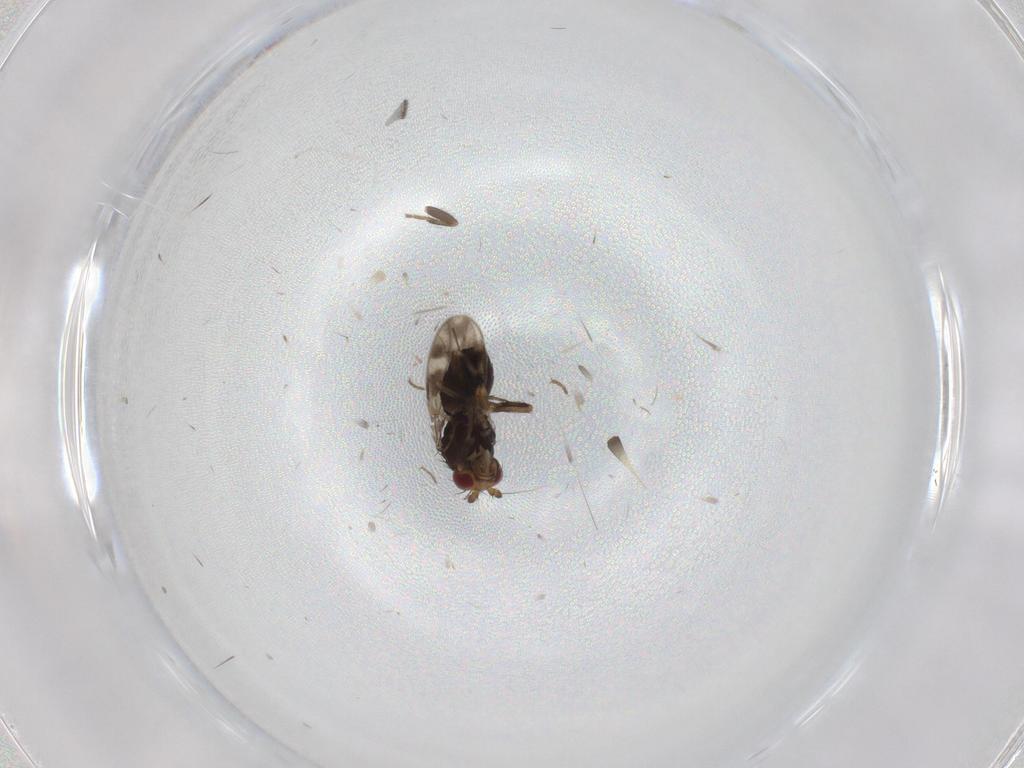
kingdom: Animalia
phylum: Arthropoda
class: Insecta
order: Diptera
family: Sphaeroceridae
